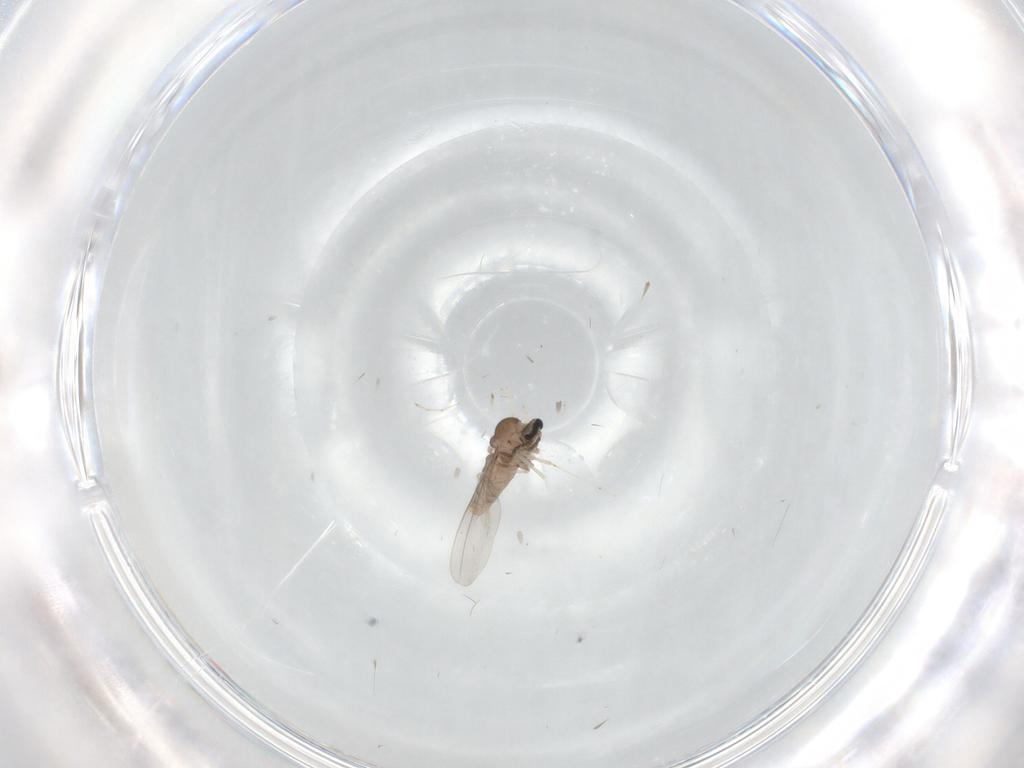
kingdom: Animalia
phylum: Arthropoda
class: Insecta
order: Diptera
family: Cecidomyiidae
